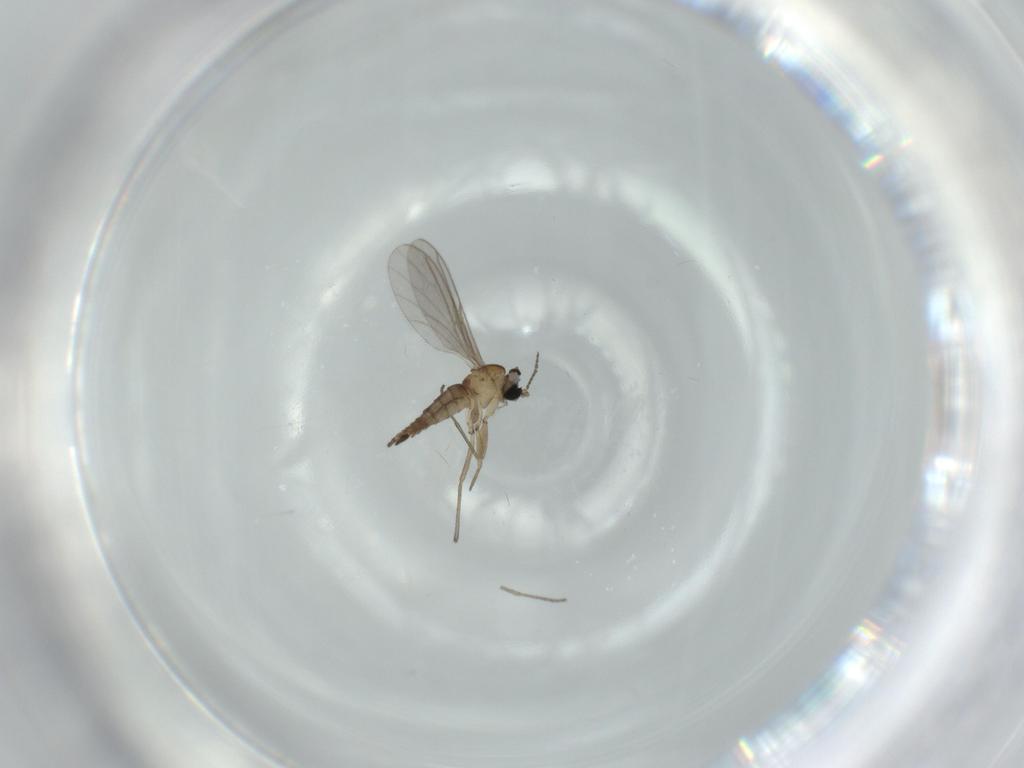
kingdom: Animalia
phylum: Arthropoda
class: Insecta
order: Diptera
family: Sciaridae
